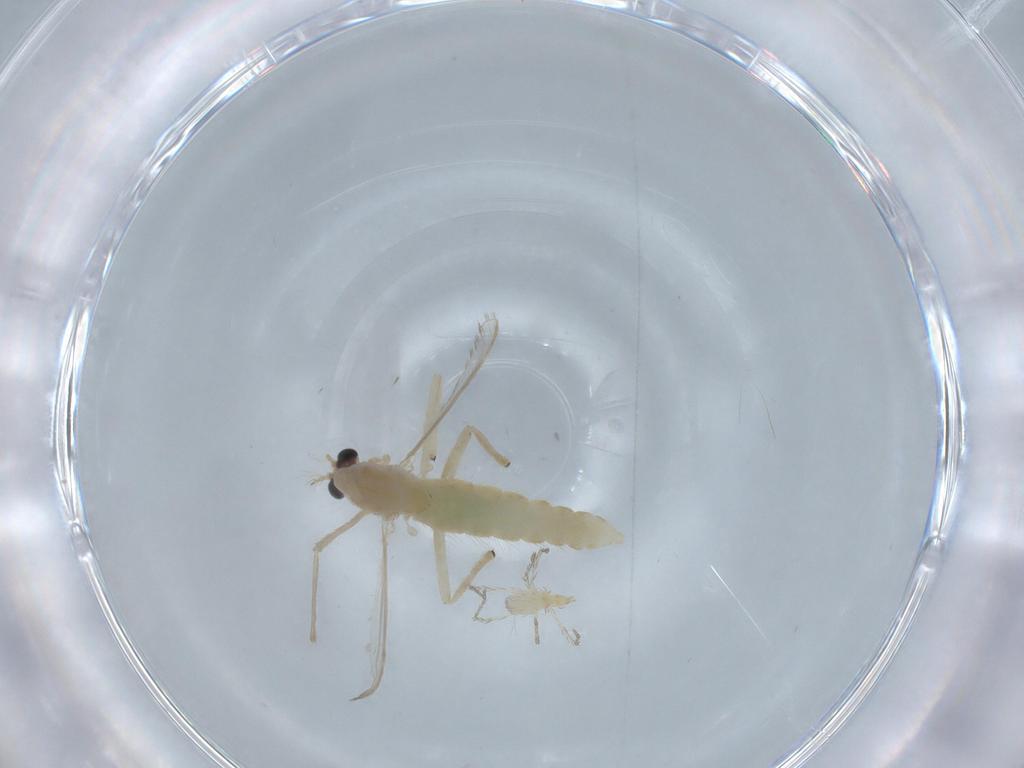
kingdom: Animalia
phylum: Arthropoda
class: Insecta
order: Diptera
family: Chironomidae
